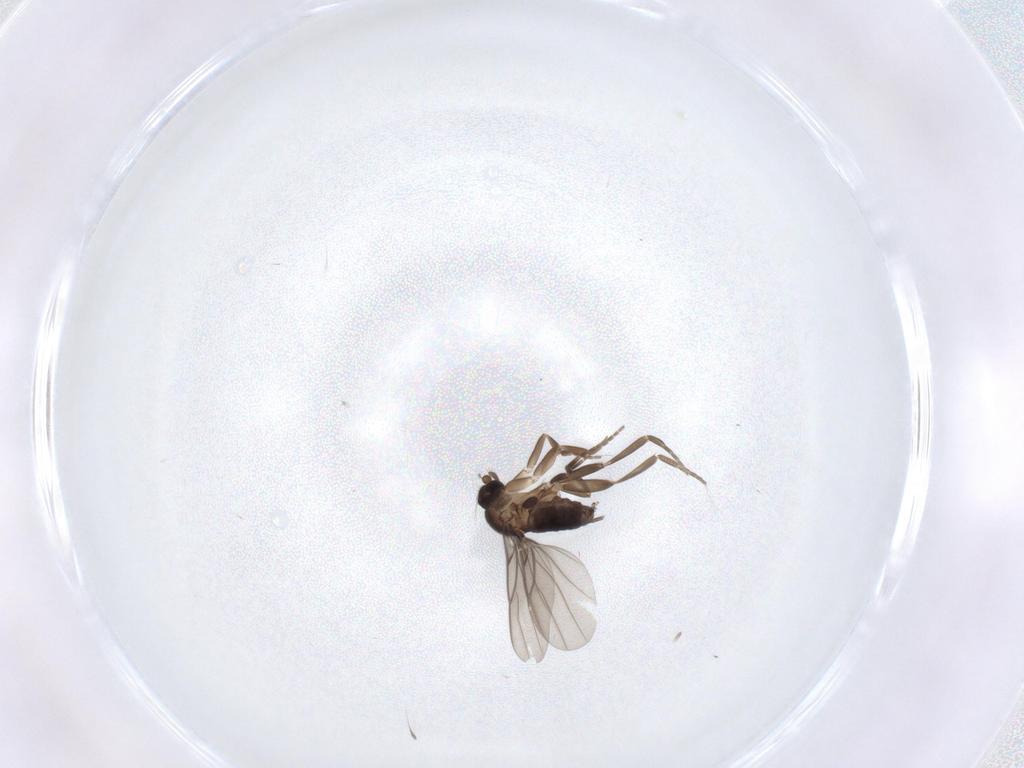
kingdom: Animalia
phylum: Arthropoda
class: Insecta
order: Diptera
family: Phoridae
